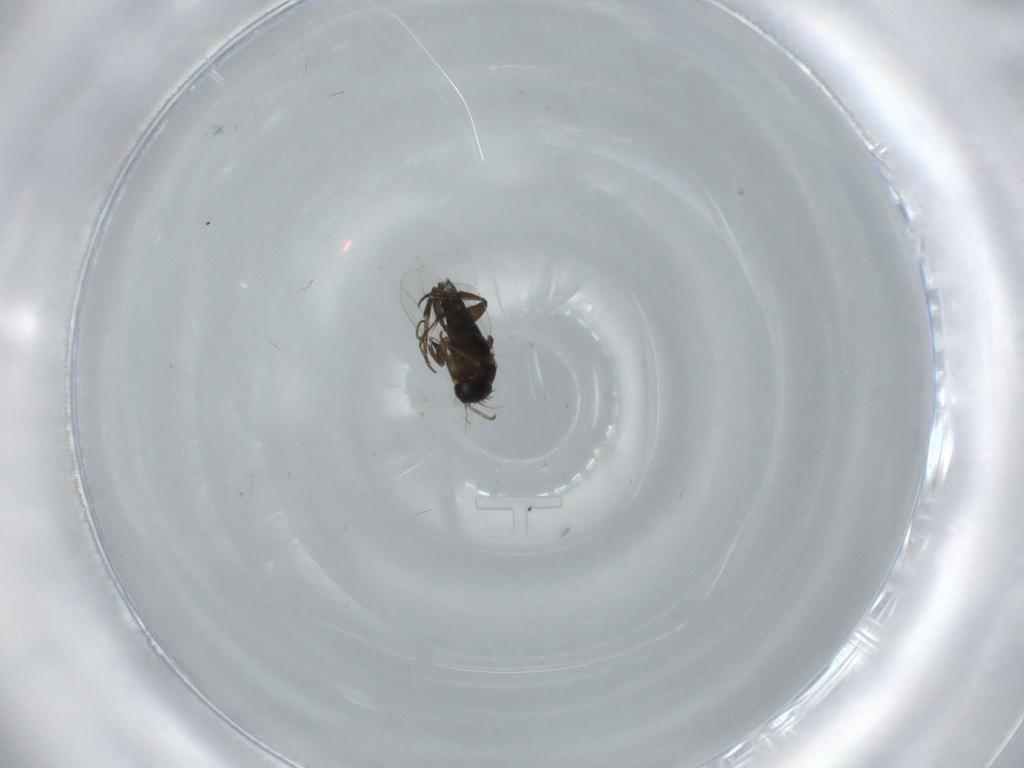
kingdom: Animalia
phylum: Arthropoda
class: Insecta
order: Diptera
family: Phoridae
